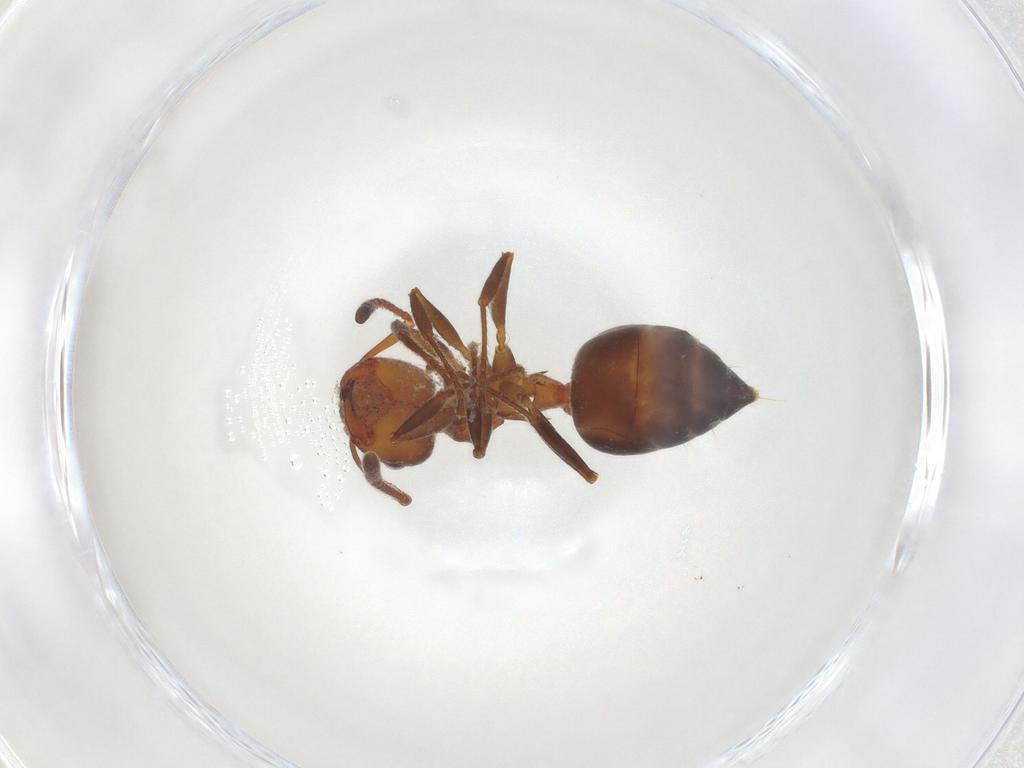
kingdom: Animalia
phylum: Arthropoda
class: Insecta
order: Hymenoptera
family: Formicidae
